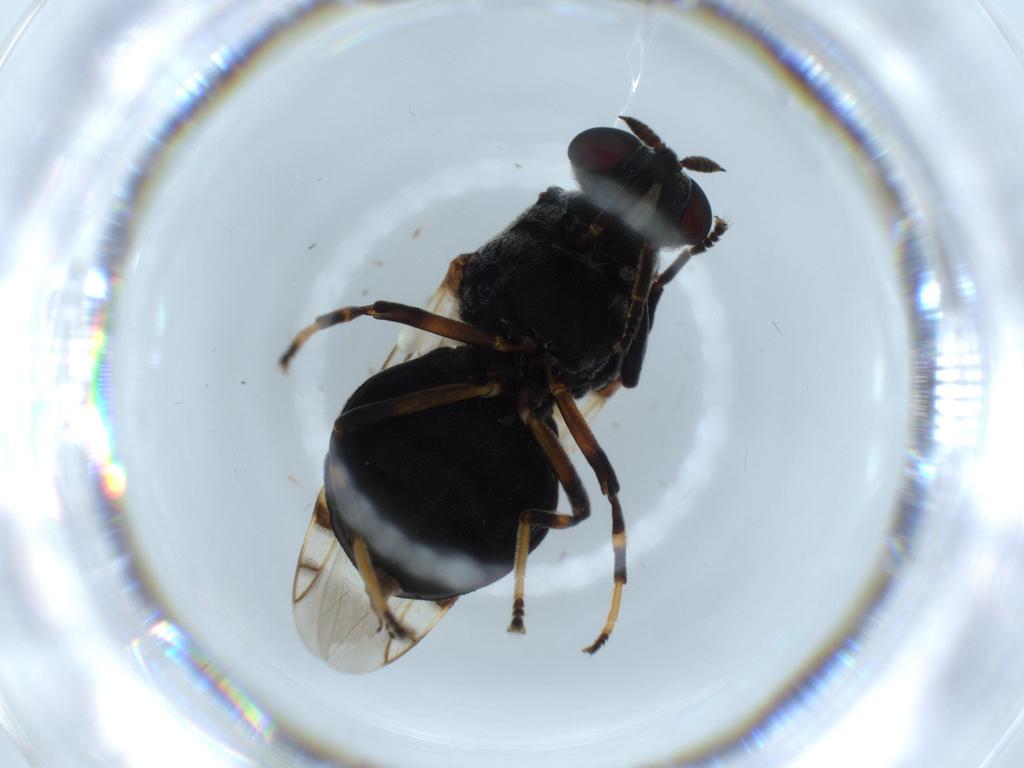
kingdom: Animalia
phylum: Arthropoda
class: Insecta
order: Diptera
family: Stratiomyidae
